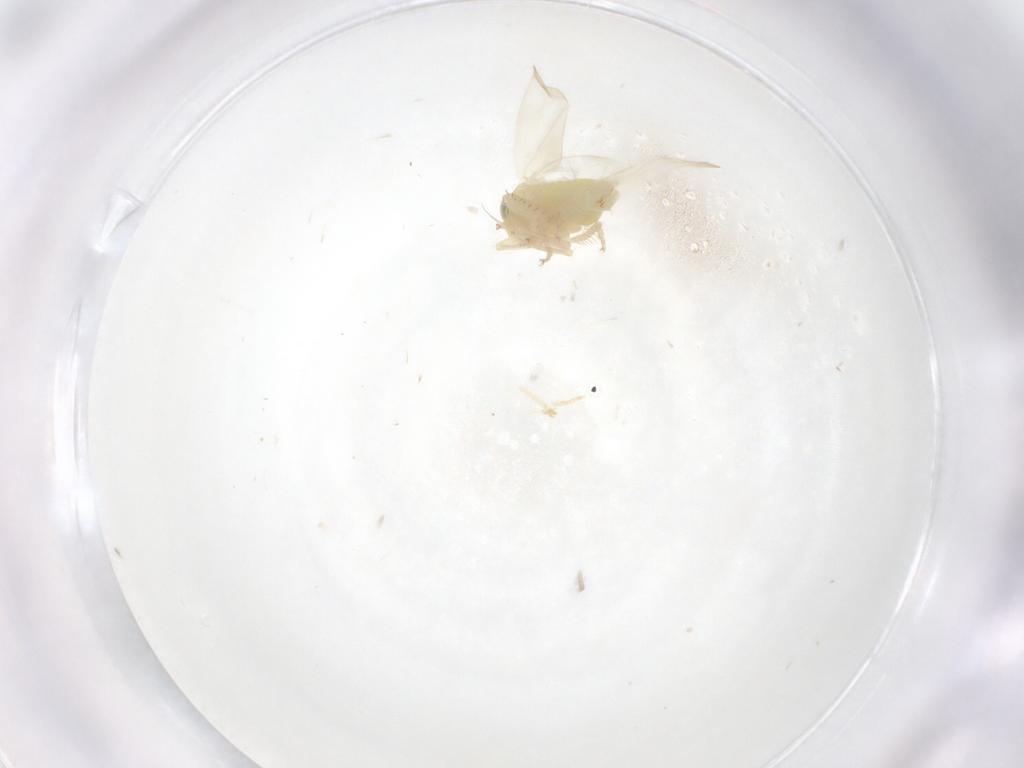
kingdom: Animalia
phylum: Arthropoda
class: Insecta
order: Hemiptera
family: Cicadellidae
